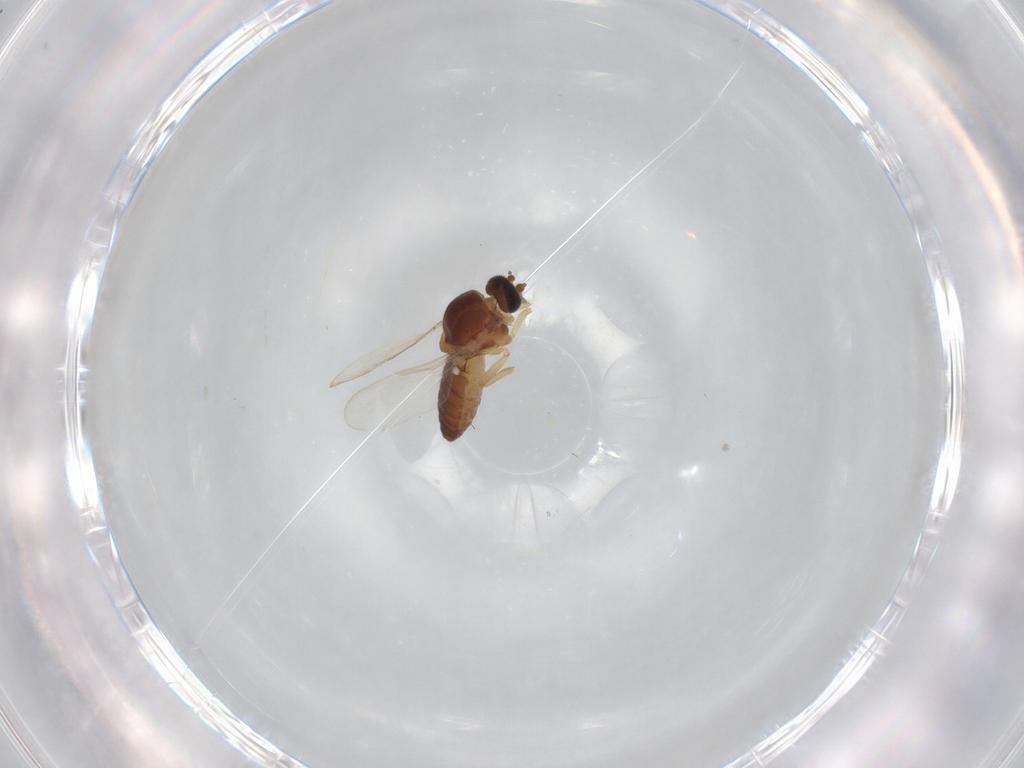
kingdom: Animalia
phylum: Arthropoda
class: Insecta
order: Diptera
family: Ceratopogonidae
